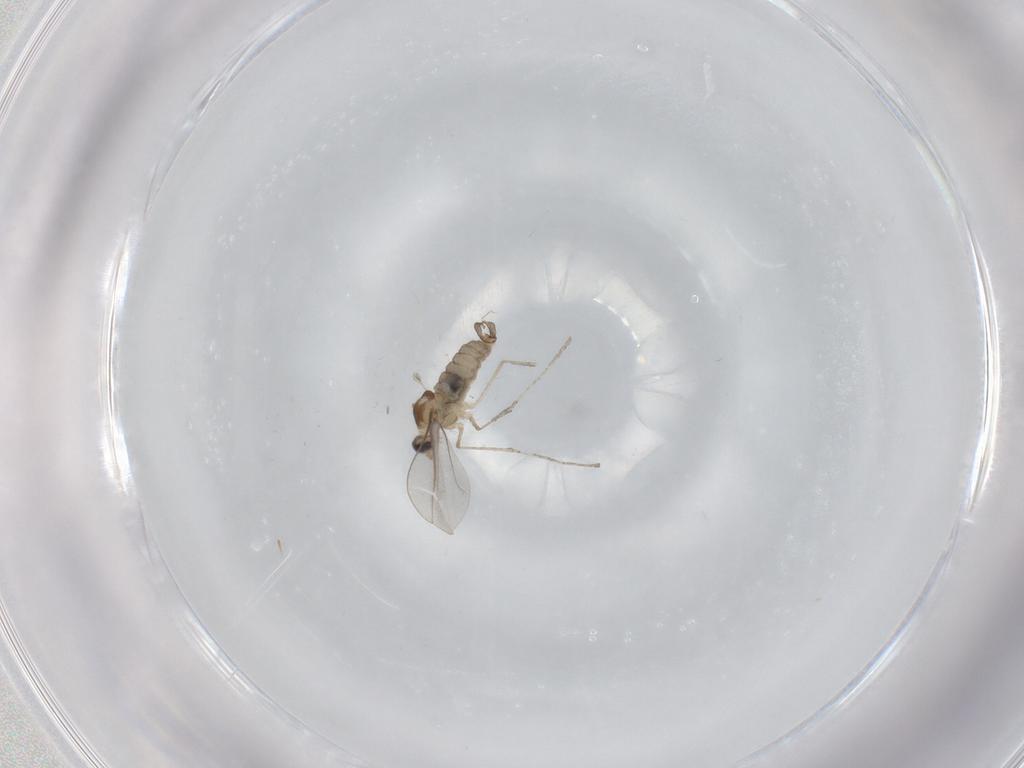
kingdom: Animalia
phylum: Arthropoda
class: Insecta
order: Diptera
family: Cecidomyiidae
